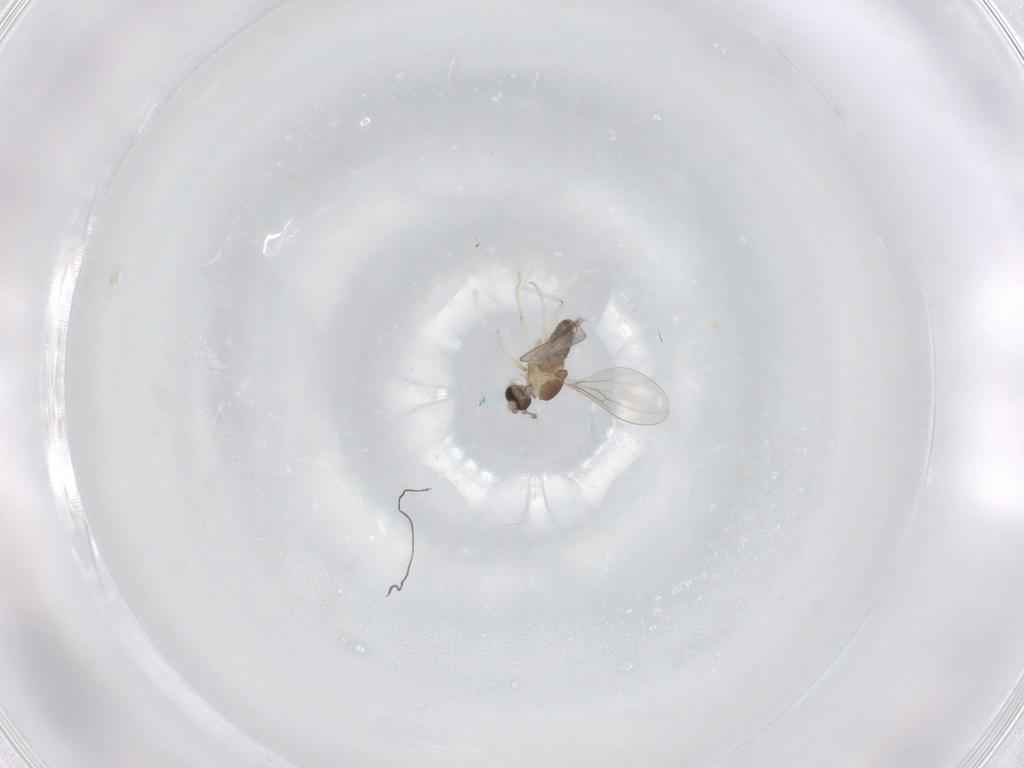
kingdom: Animalia
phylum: Arthropoda
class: Insecta
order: Diptera
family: Cecidomyiidae
